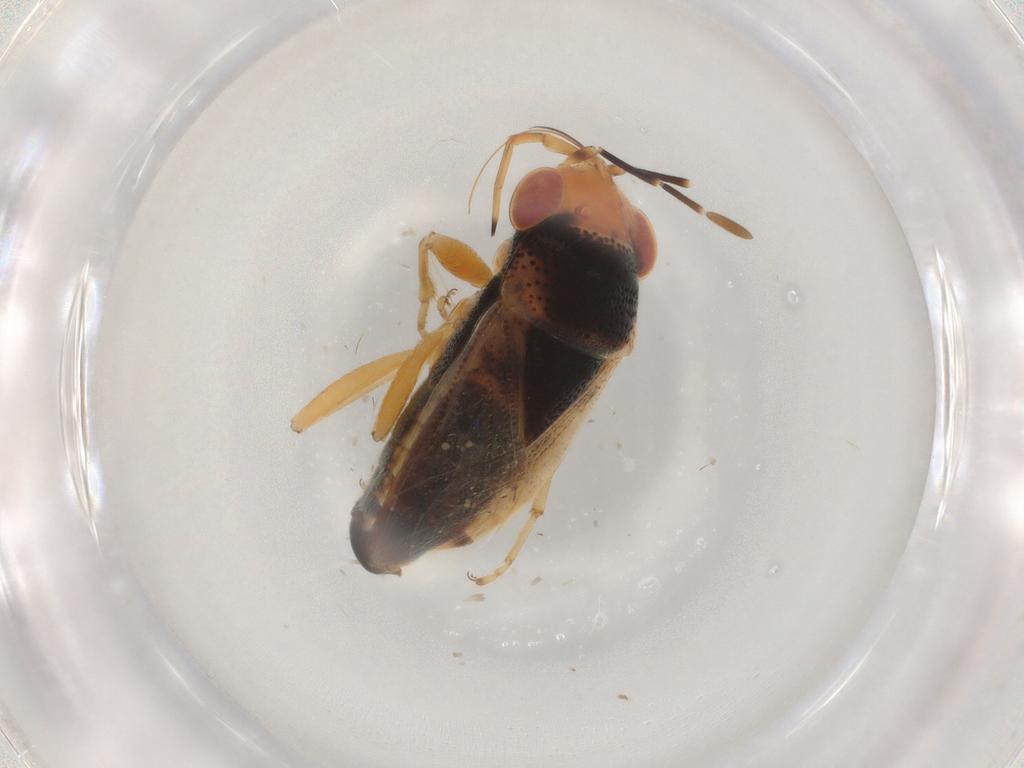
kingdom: Animalia
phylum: Arthropoda
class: Insecta
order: Hemiptera
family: Geocoridae
